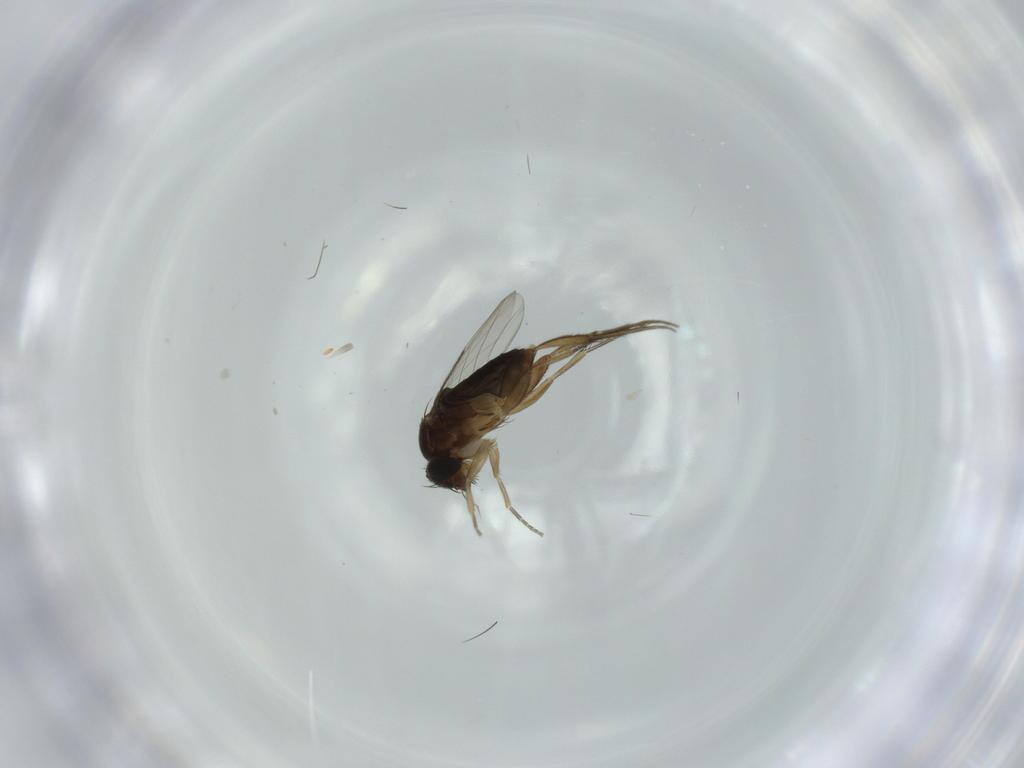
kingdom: Animalia
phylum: Arthropoda
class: Insecta
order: Diptera
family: Phoridae
